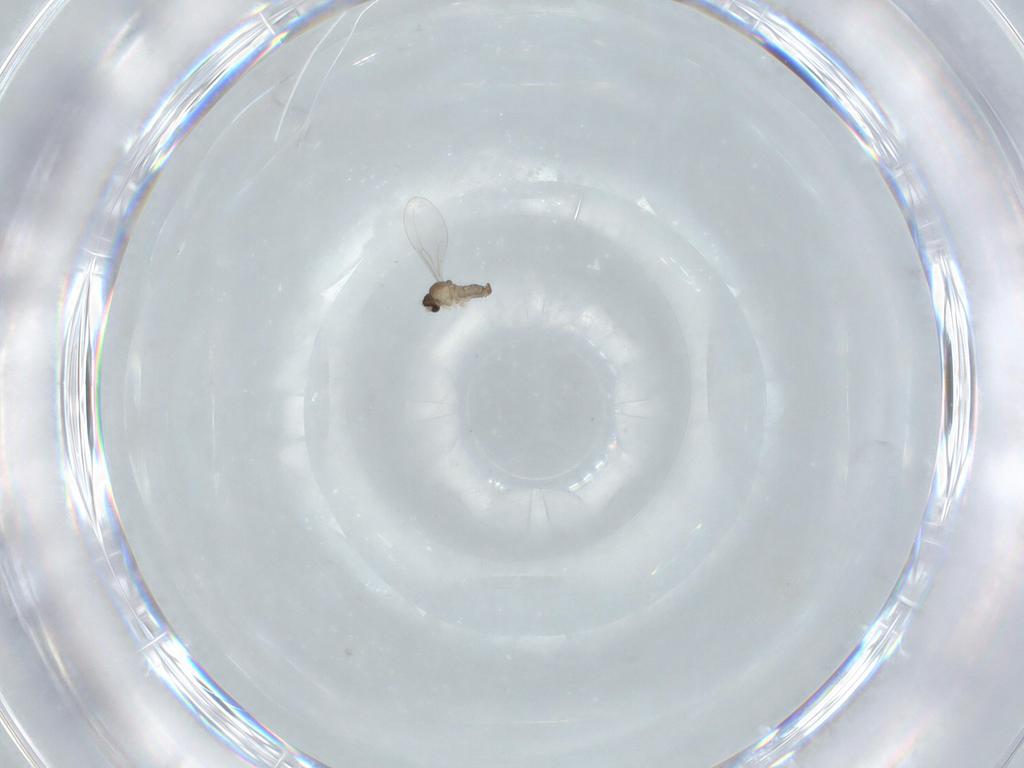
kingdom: Animalia
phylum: Arthropoda
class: Insecta
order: Diptera
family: Cecidomyiidae
